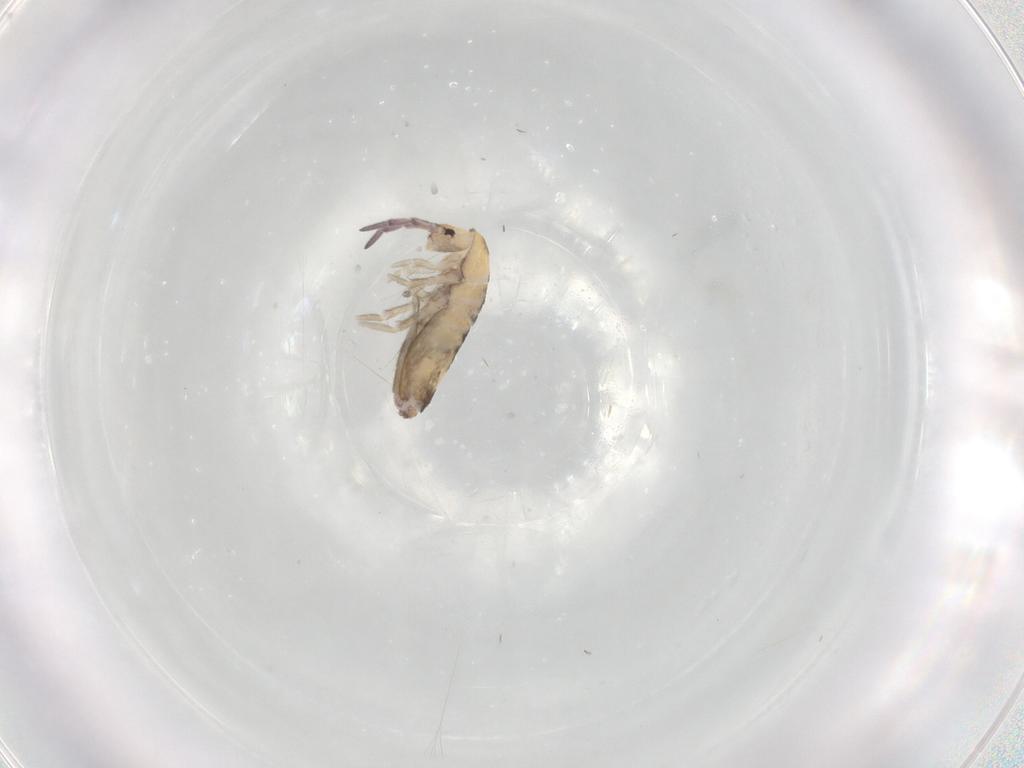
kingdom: Animalia
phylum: Arthropoda
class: Collembola
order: Entomobryomorpha
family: Entomobryidae
